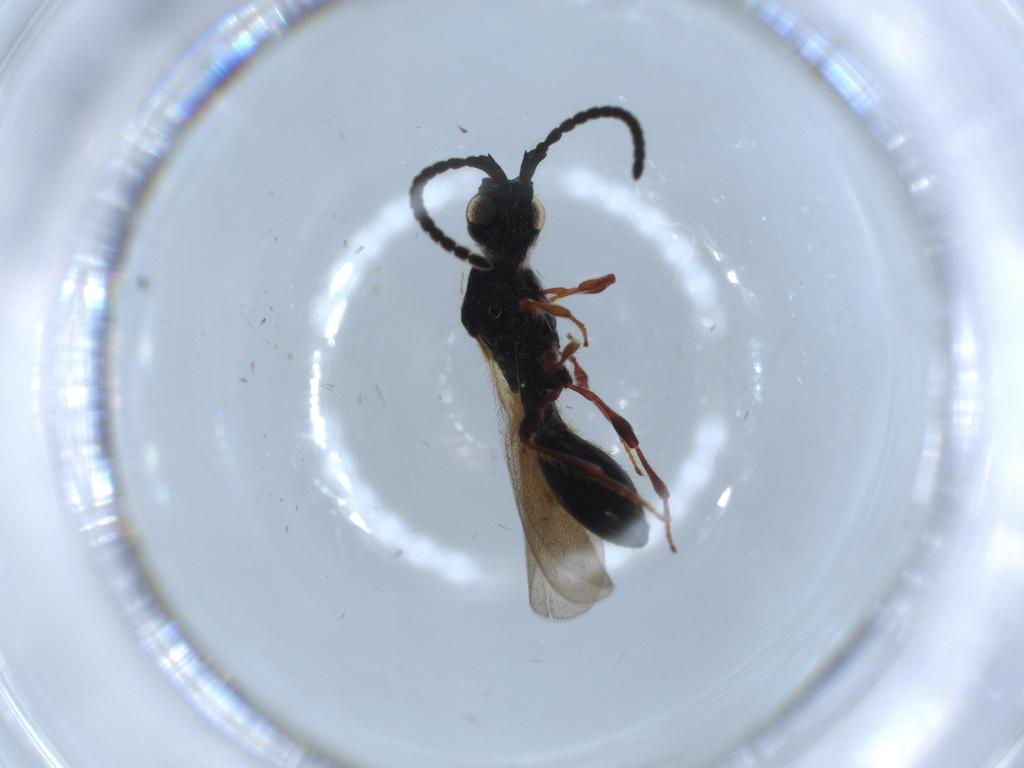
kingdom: Animalia
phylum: Arthropoda
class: Insecta
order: Hymenoptera
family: Diapriidae
